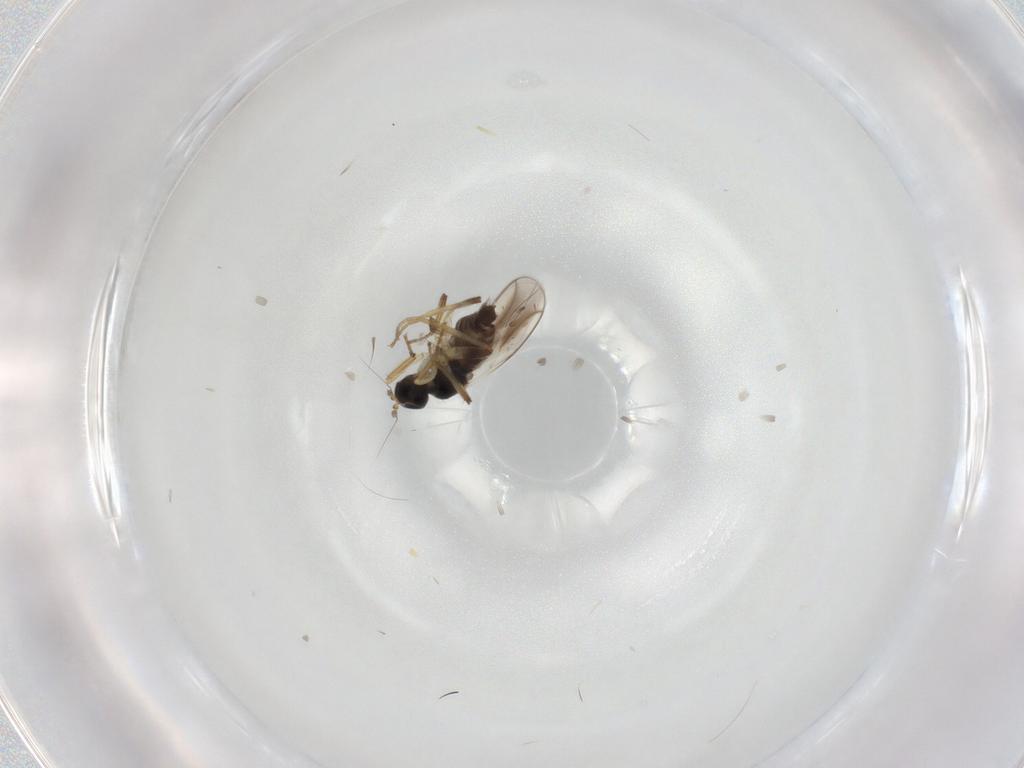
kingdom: Animalia
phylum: Arthropoda
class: Insecta
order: Diptera
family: Hybotidae
